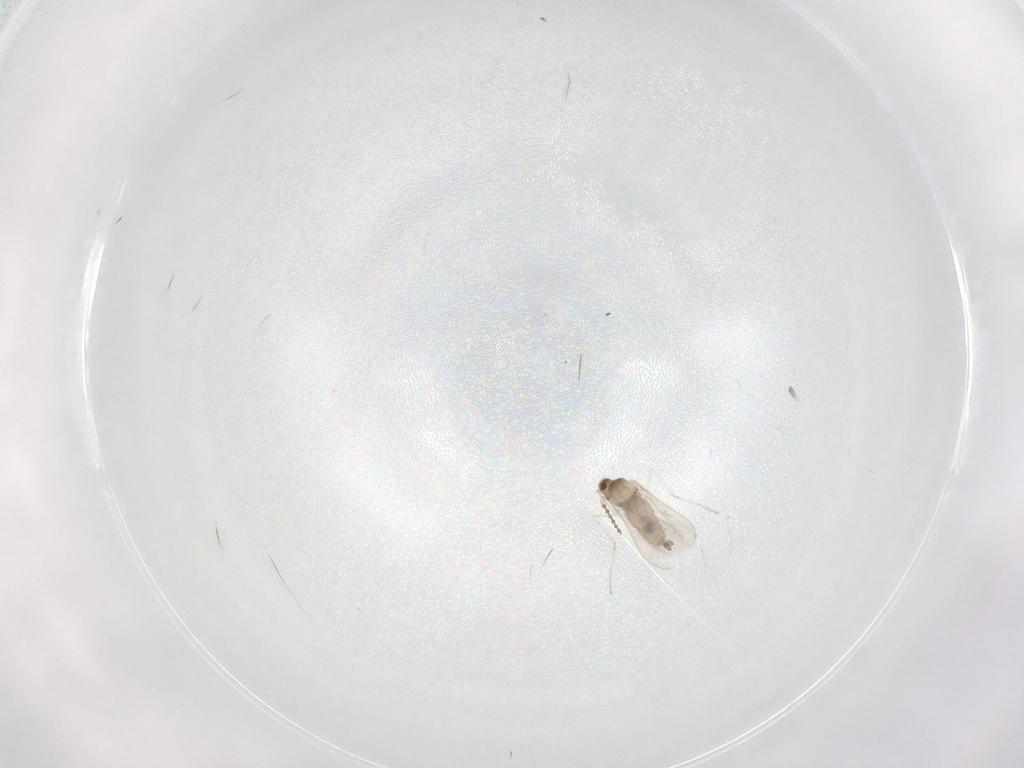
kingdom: Animalia
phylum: Arthropoda
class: Insecta
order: Diptera
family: Cecidomyiidae
